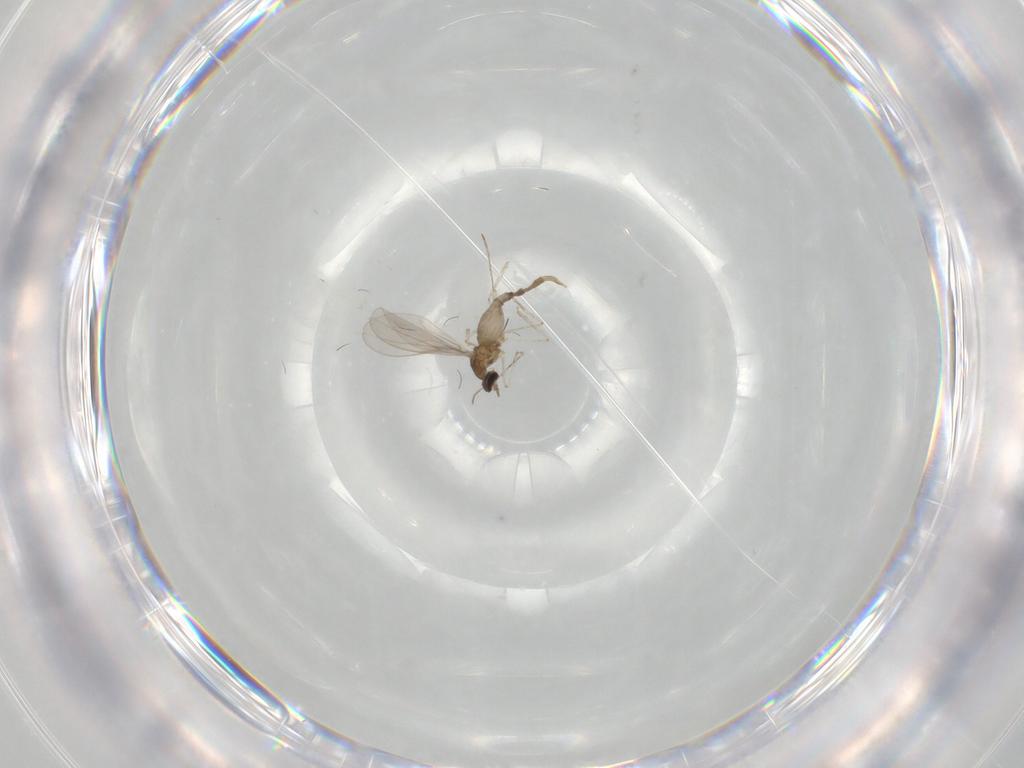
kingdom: Animalia
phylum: Arthropoda
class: Insecta
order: Diptera
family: Cecidomyiidae
